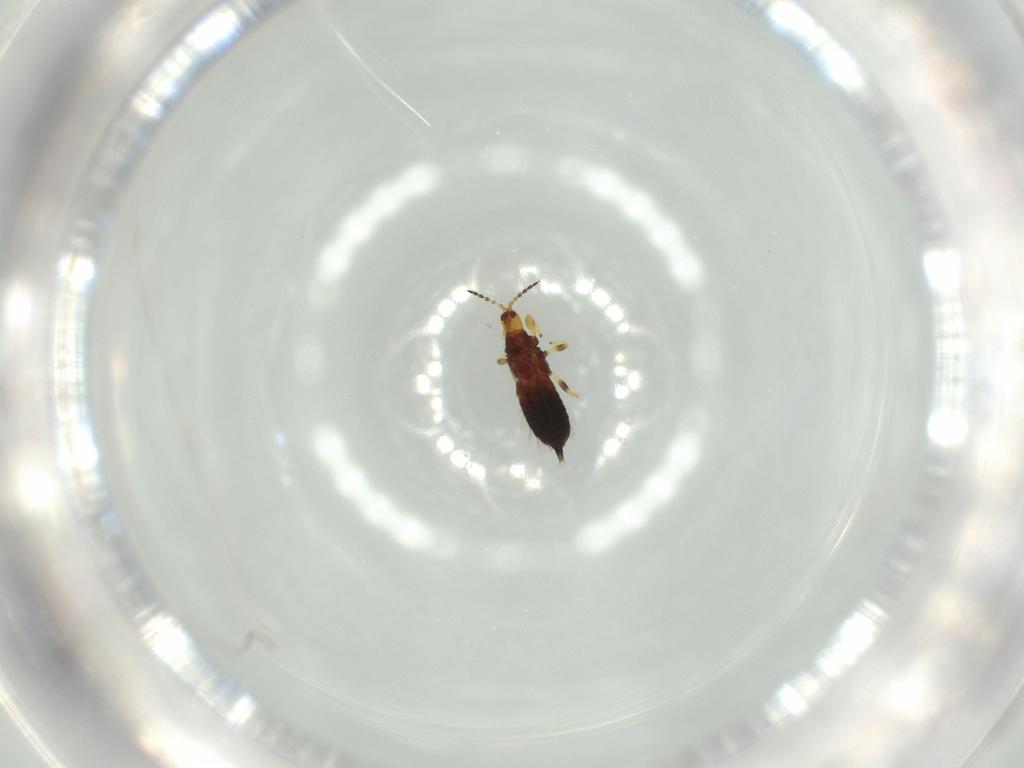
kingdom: Animalia
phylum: Arthropoda
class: Insecta
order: Thysanoptera
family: Phlaeothripidae
